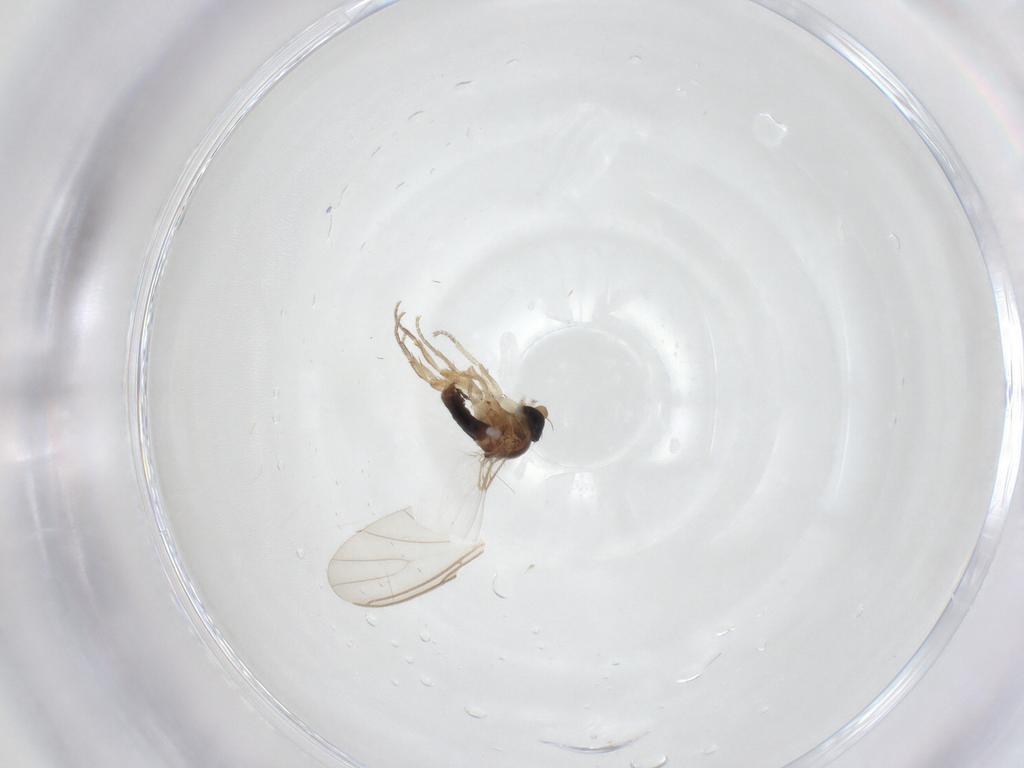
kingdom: Animalia
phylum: Arthropoda
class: Insecta
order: Diptera
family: Phoridae
